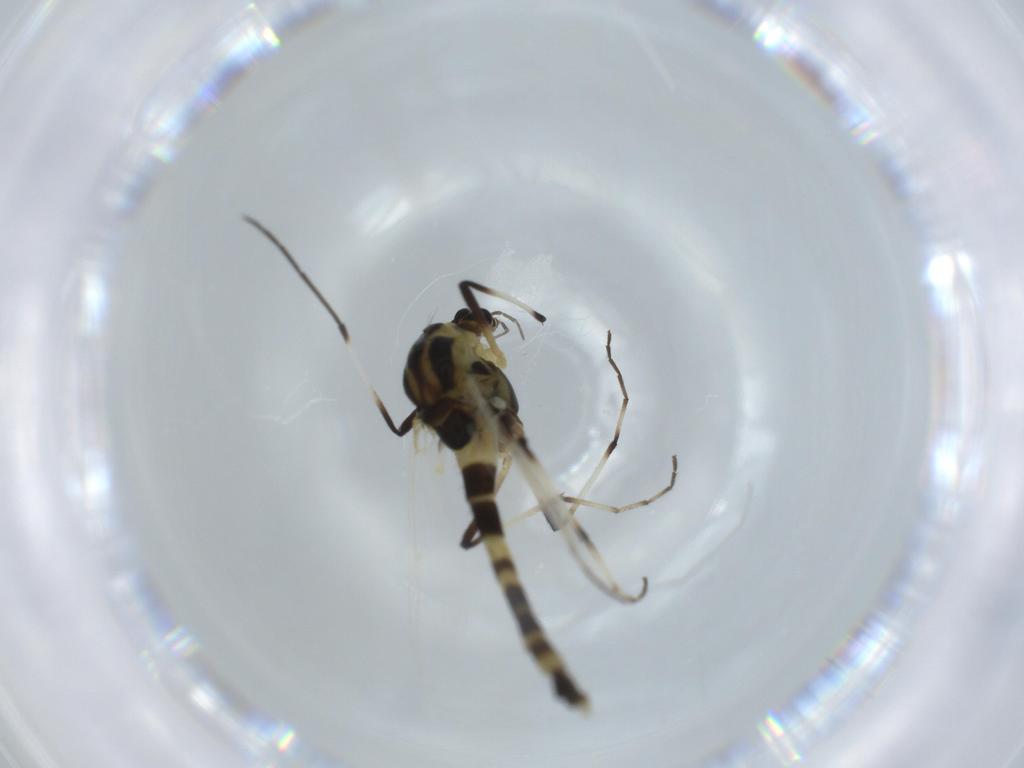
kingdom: Animalia
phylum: Arthropoda
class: Insecta
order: Diptera
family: Chironomidae
